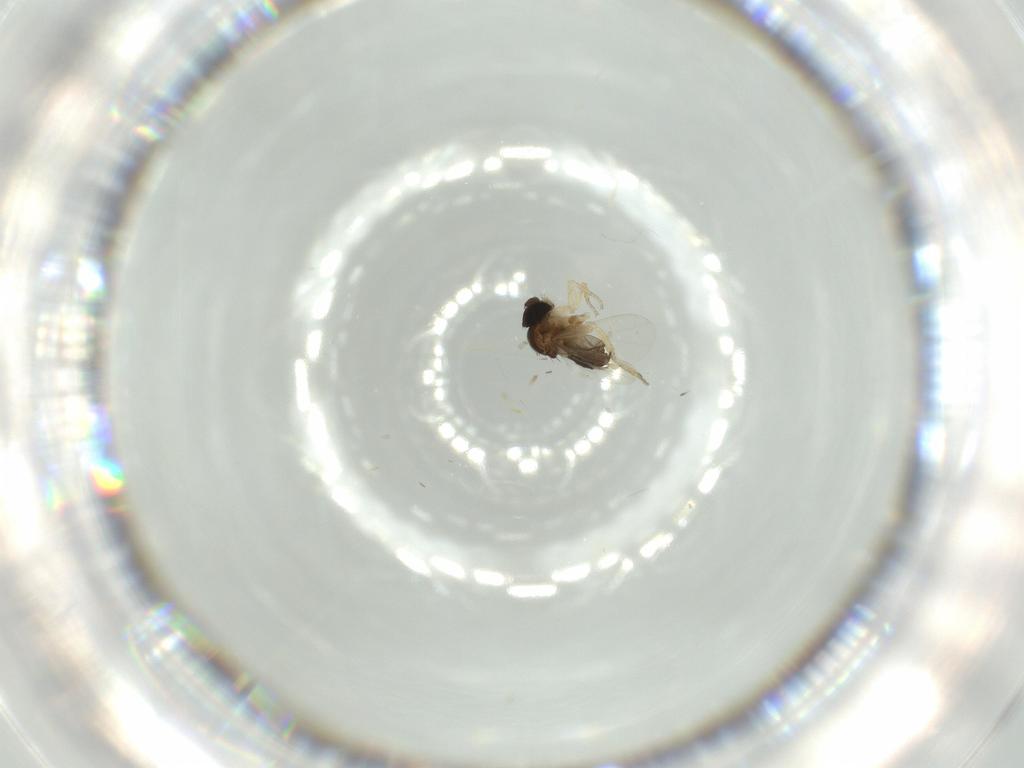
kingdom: Animalia
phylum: Arthropoda
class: Insecta
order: Diptera
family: Phoridae
